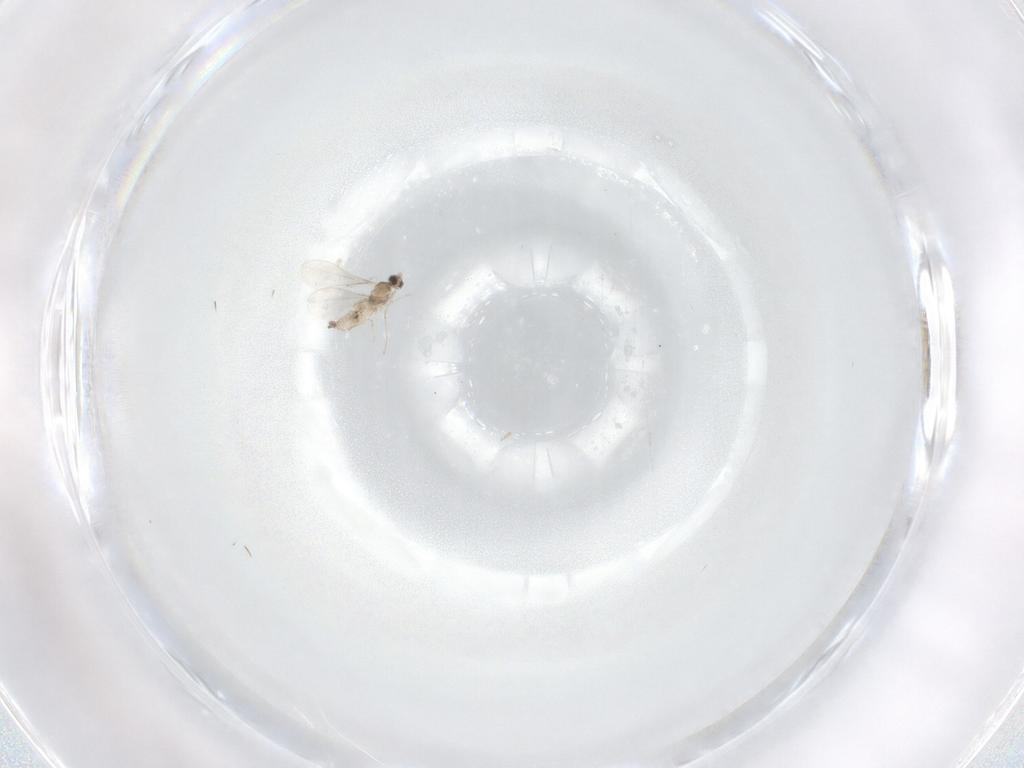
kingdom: Animalia
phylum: Arthropoda
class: Insecta
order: Diptera
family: Cecidomyiidae
